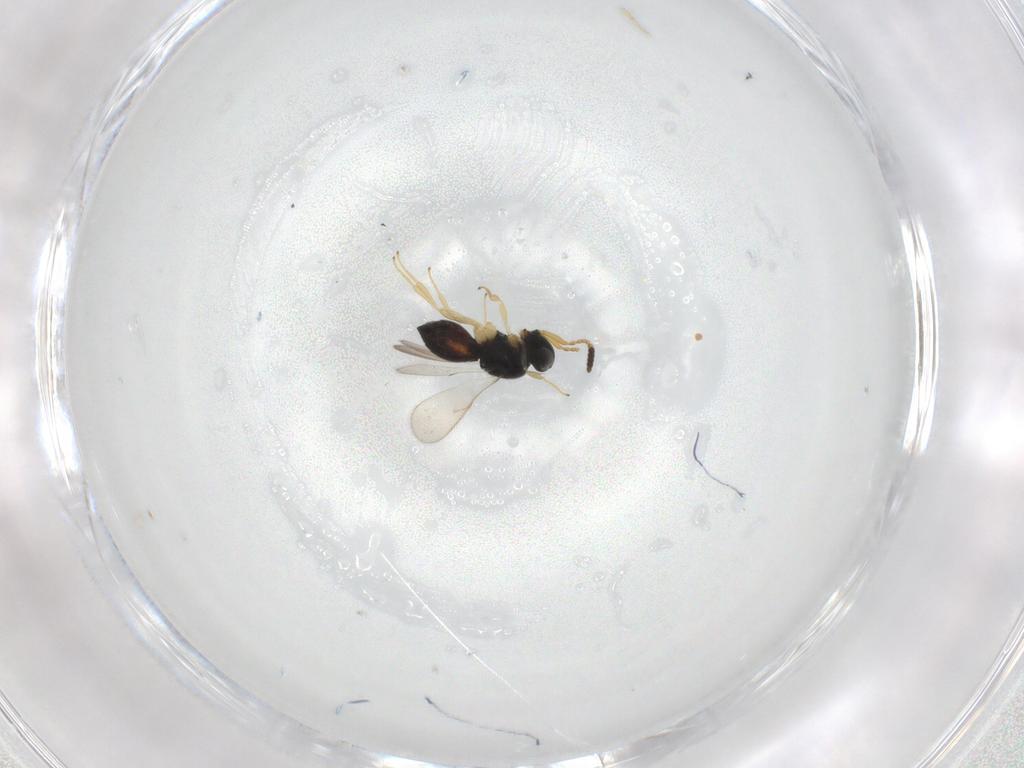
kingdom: Animalia
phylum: Arthropoda
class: Insecta
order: Hymenoptera
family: Scelionidae
